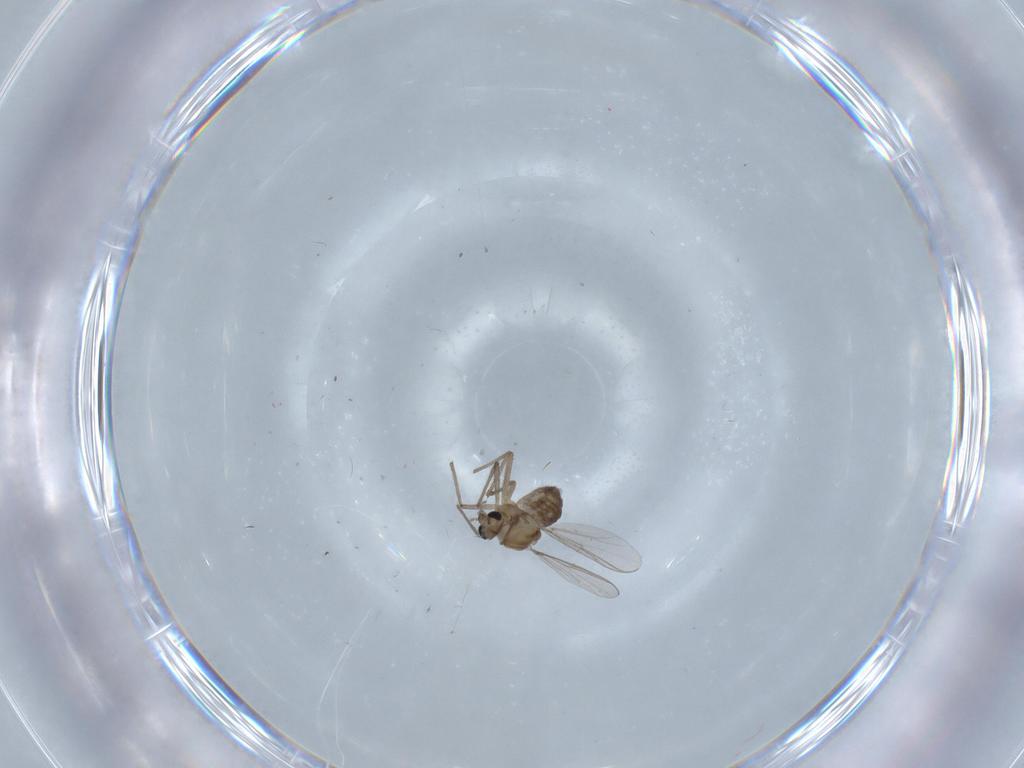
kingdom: Animalia
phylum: Arthropoda
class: Insecta
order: Diptera
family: Chironomidae
